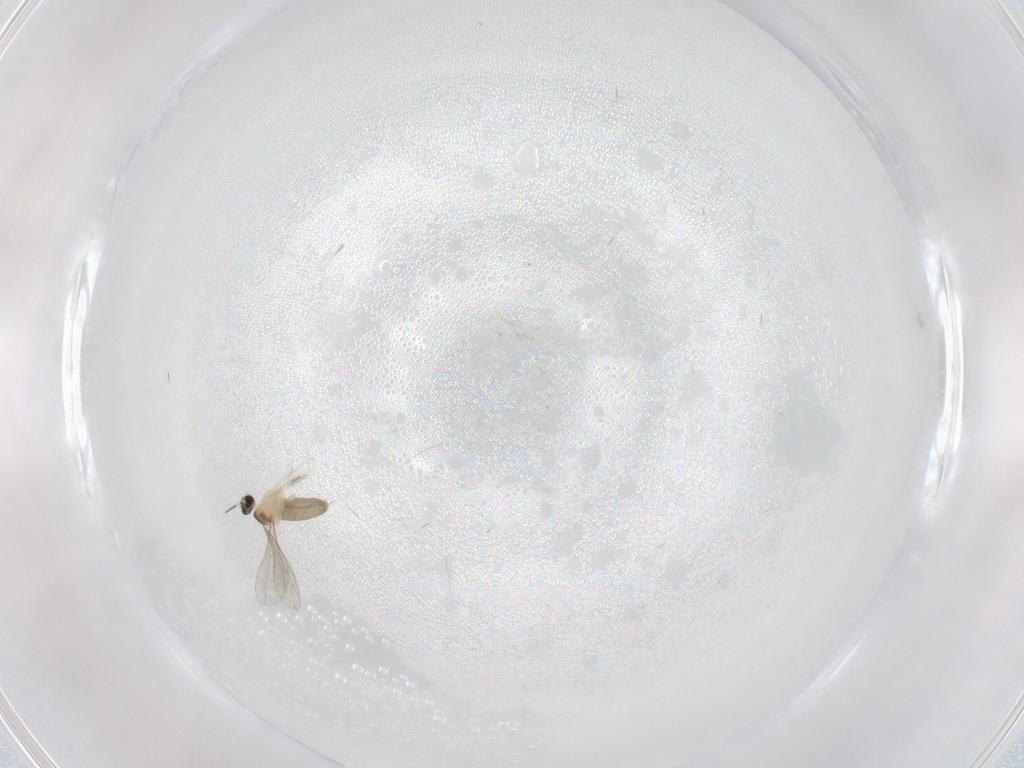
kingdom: Animalia
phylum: Arthropoda
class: Insecta
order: Diptera
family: Cecidomyiidae
